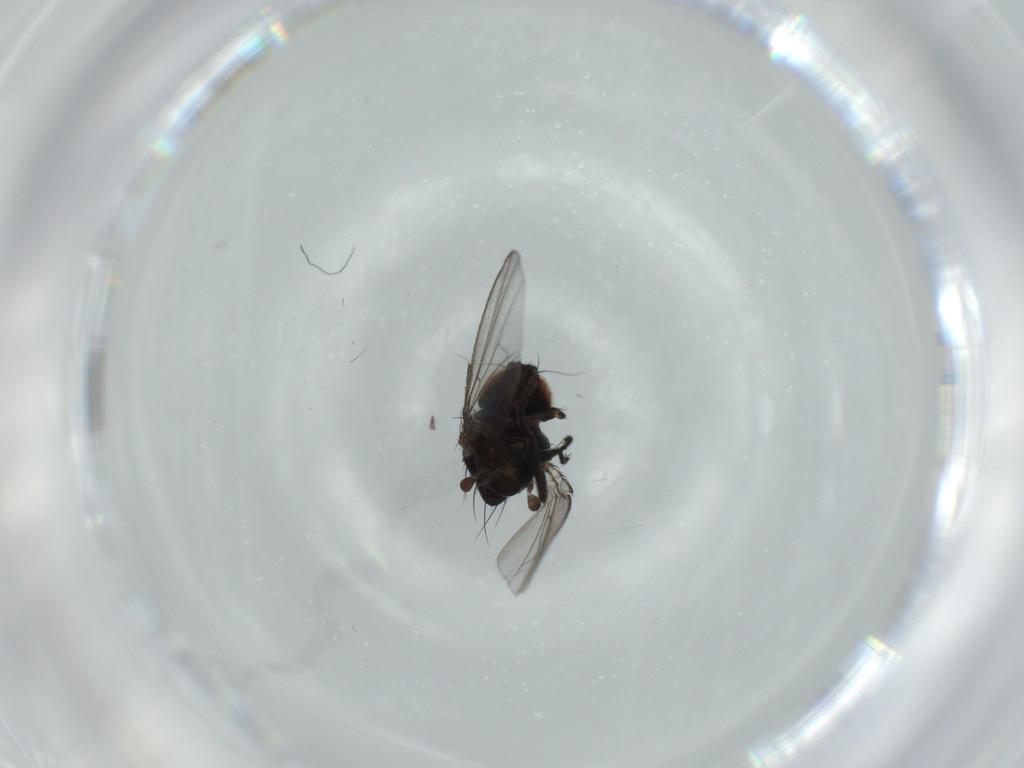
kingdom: Animalia
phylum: Arthropoda
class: Insecta
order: Diptera
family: Milichiidae
